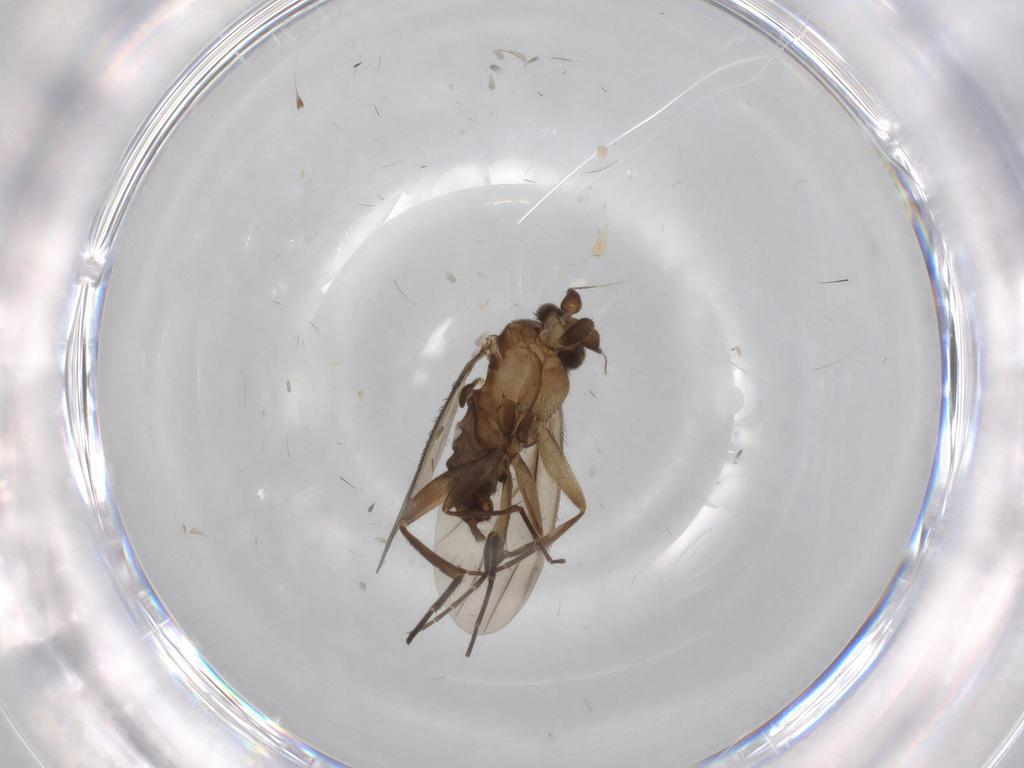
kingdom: Animalia
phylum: Arthropoda
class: Insecta
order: Diptera
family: Phoridae
